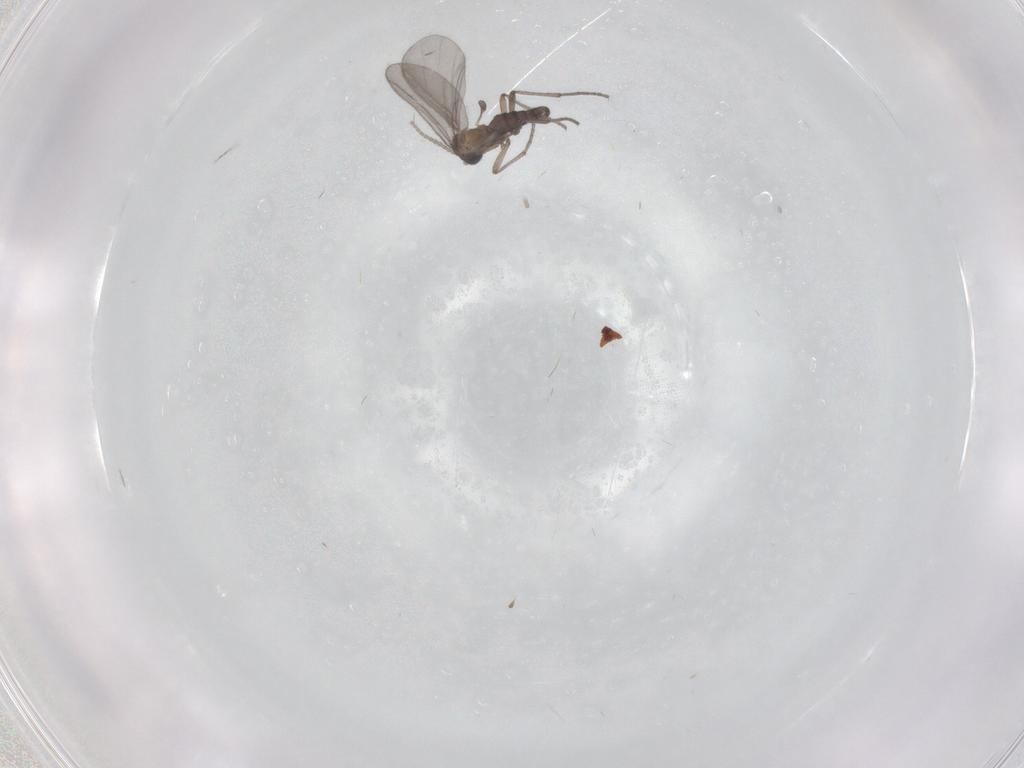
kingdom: Animalia
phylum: Arthropoda
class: Insecta
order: Diptera
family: Sciaridae
